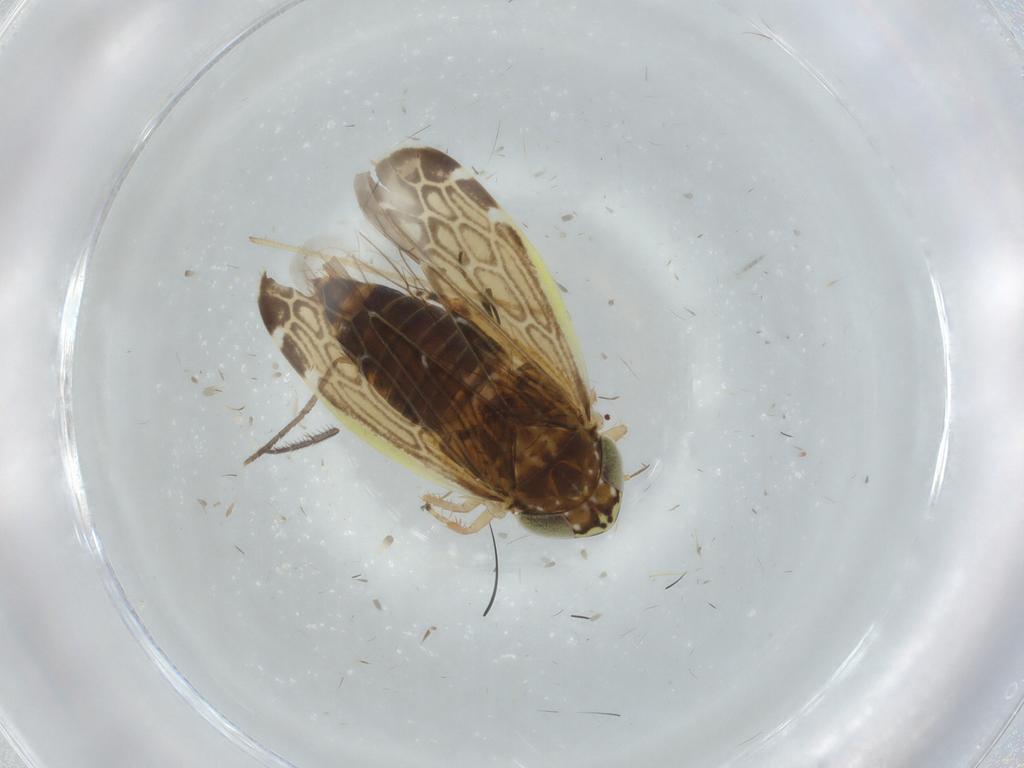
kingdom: Animalia
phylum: Arthropoda
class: Insecta
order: Hemiptera
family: Cicadellidae
